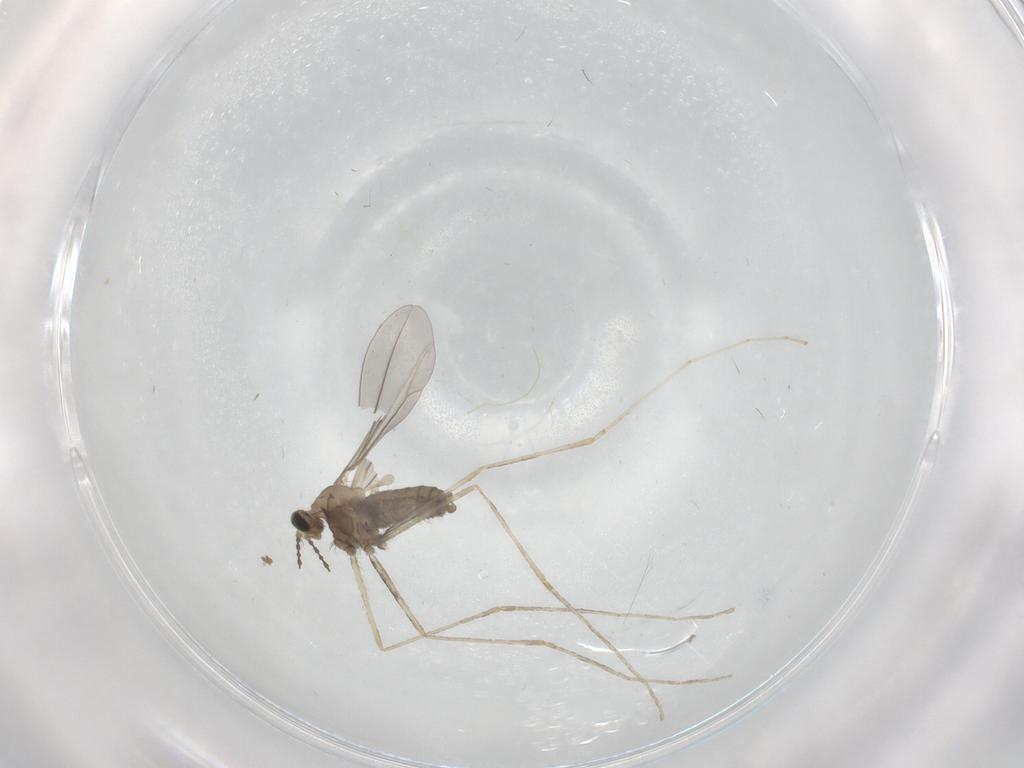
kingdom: Animalia
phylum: Arthropoda
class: Insecta
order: Diptera
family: Cecidomyiidae
